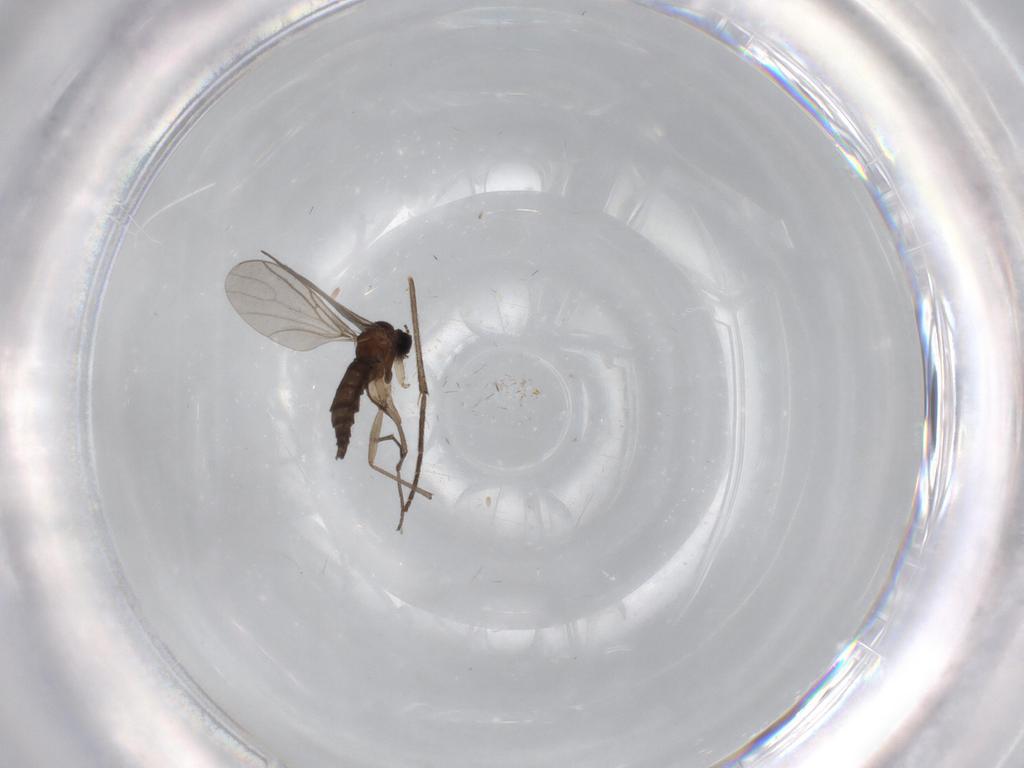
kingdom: Animalia
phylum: Arthropoda
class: Insecta
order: Diptera
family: Sciaridae
